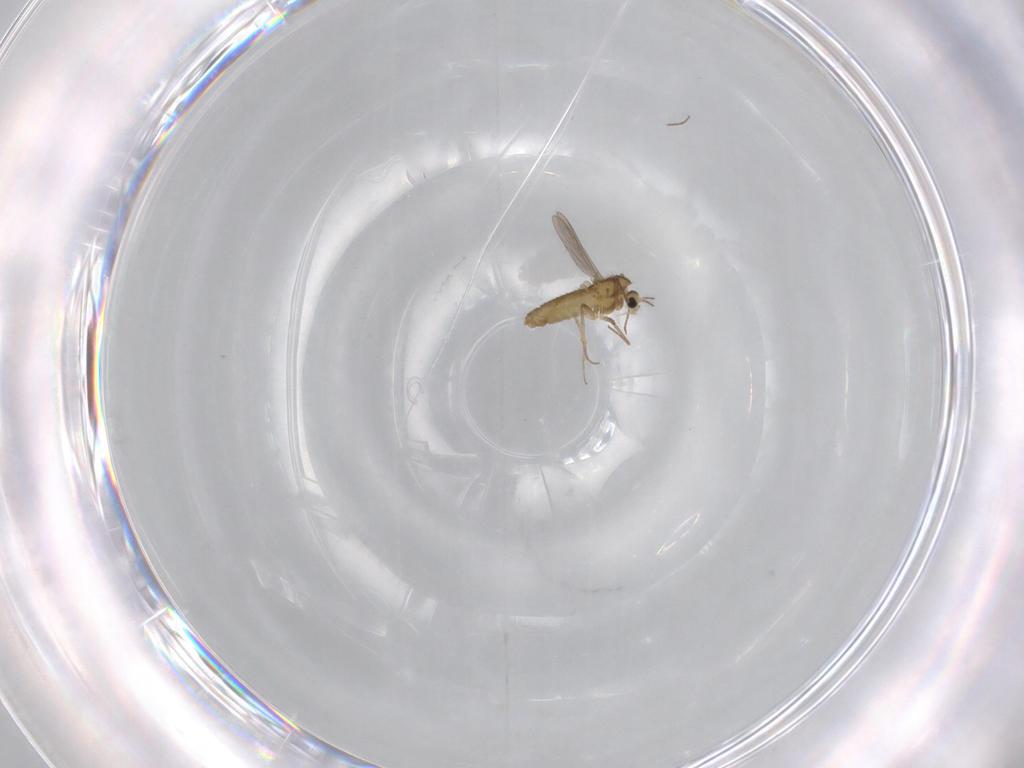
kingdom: Animalia
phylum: Arthropoda
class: Insecta
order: Diptera
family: Chironomidae
